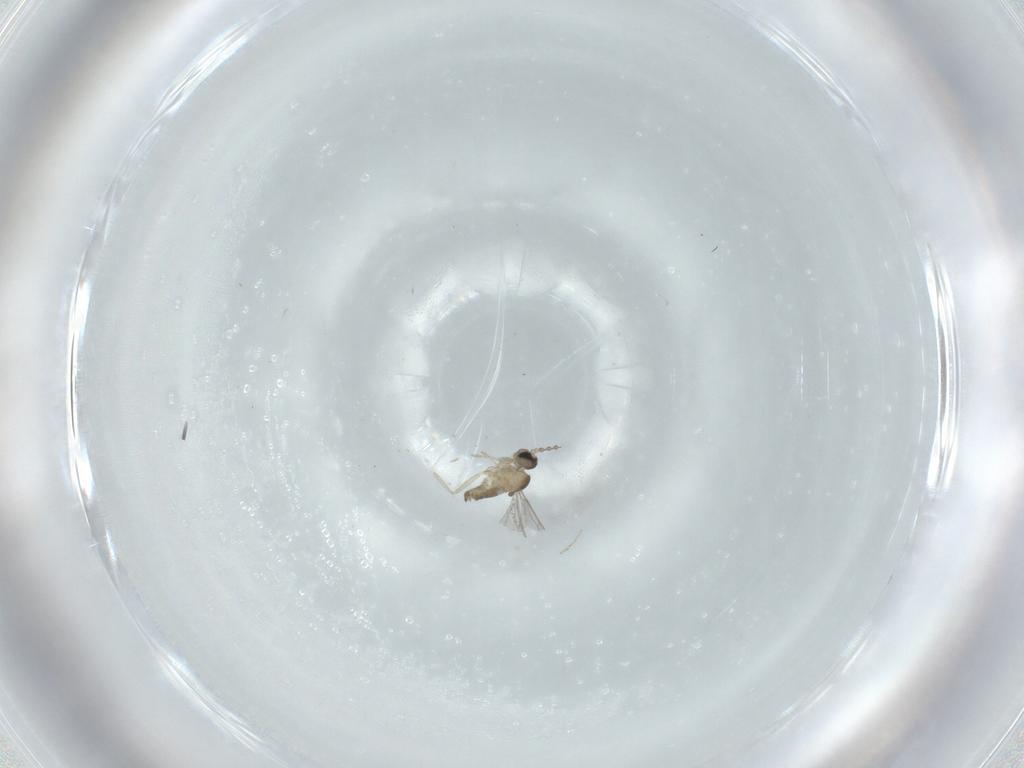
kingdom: Animalia
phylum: Arthropoda
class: Insecta
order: Diptera
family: Cecidomyiidae
